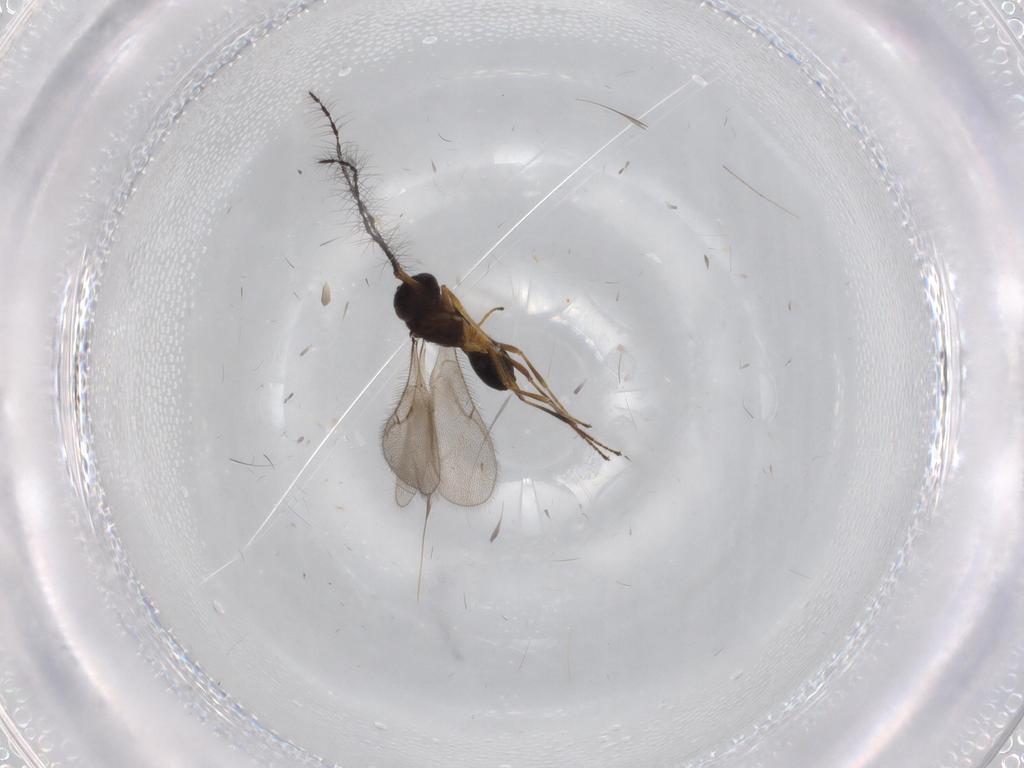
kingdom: Animalia
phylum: Arthropoda
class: Insecta
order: Hymenoptera
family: Scelionidae
